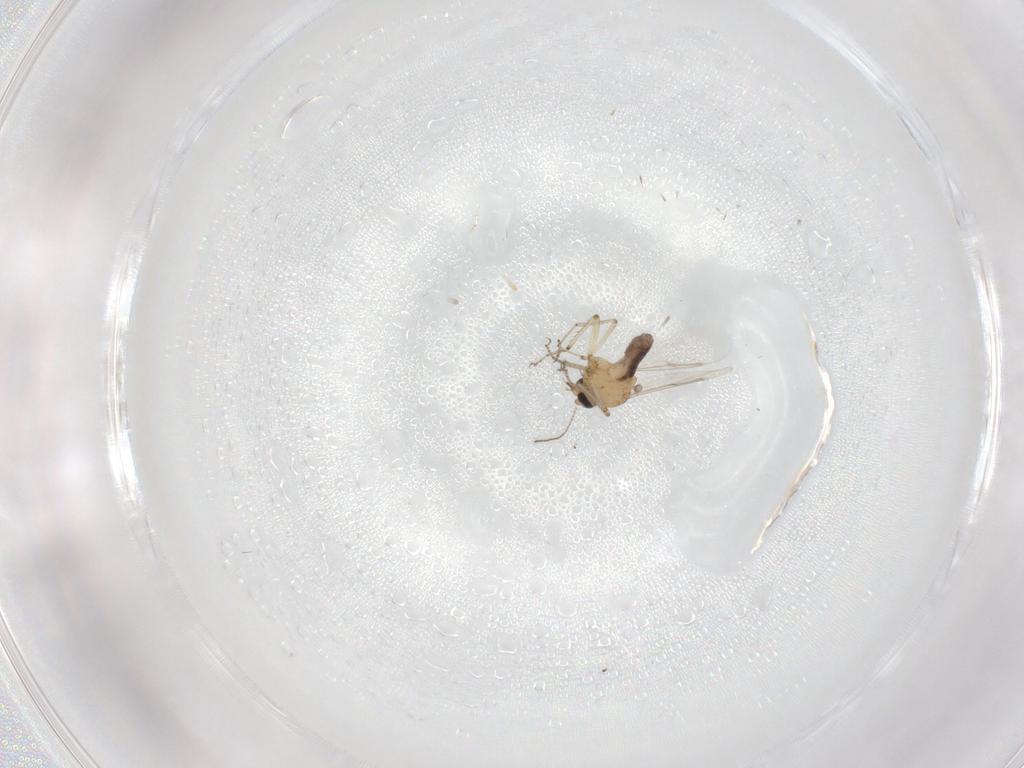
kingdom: Animalia
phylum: Arthropoda
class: Insecta
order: Diptera
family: Ceratopogonidae
